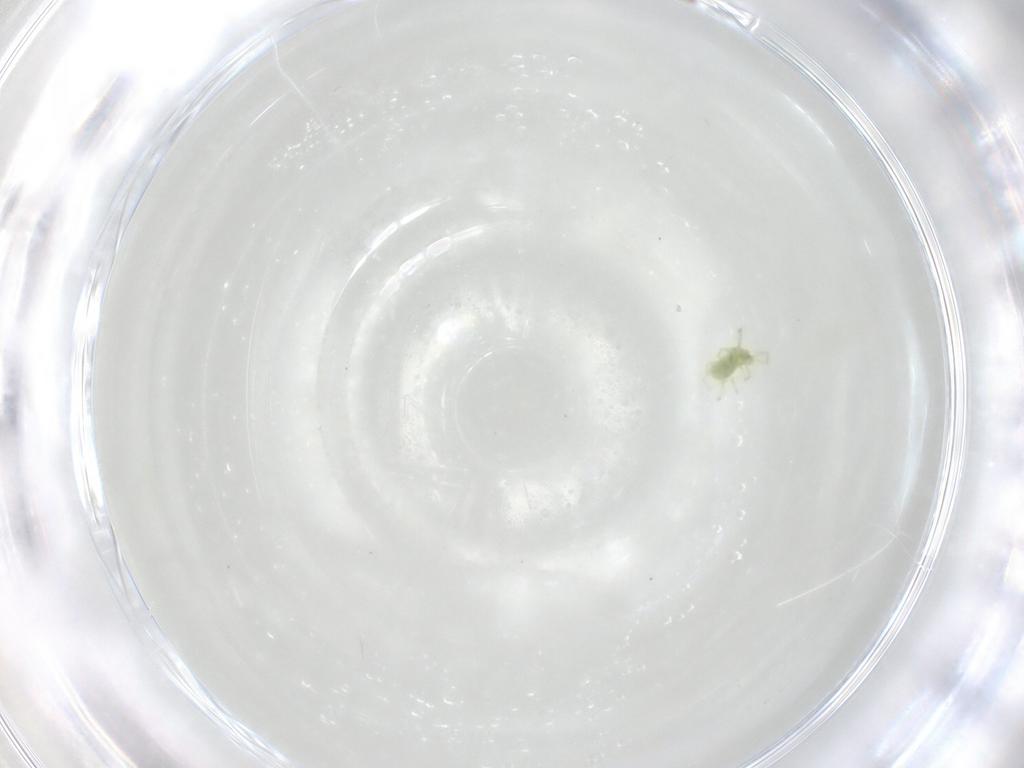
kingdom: Animalia
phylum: Arthropoda
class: Arachnida
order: Trombidiformes
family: Erythraeidae
